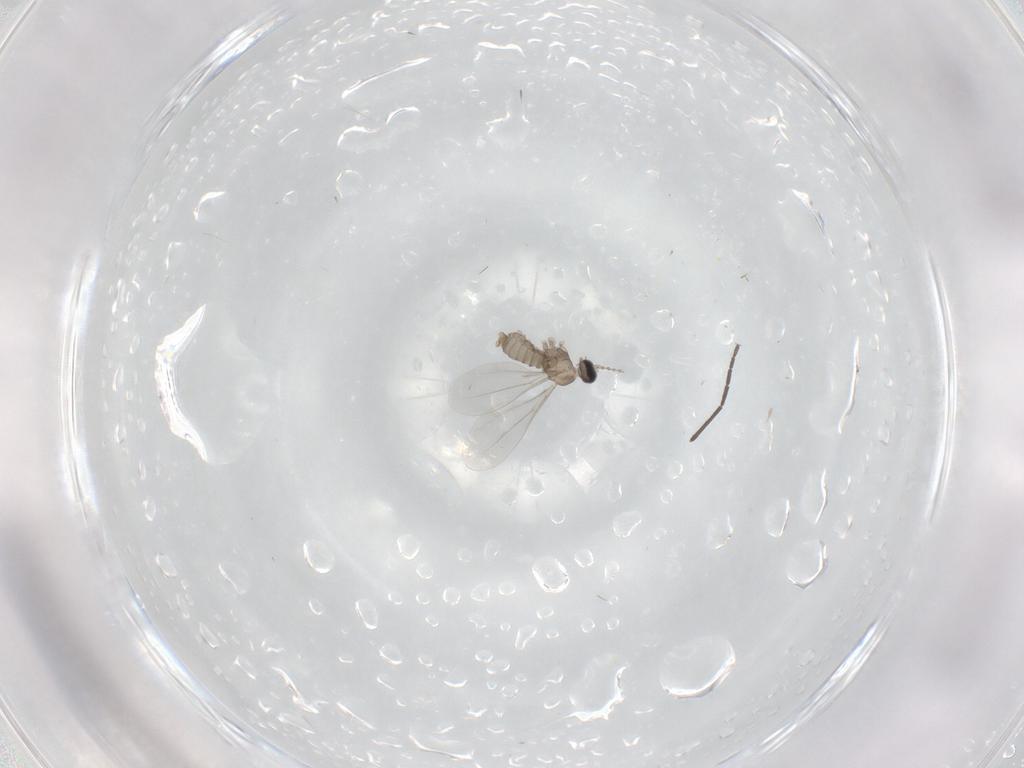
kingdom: Animalia
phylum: Arthropoda
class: Insecta
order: Diptera
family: Cecidomyiidae
